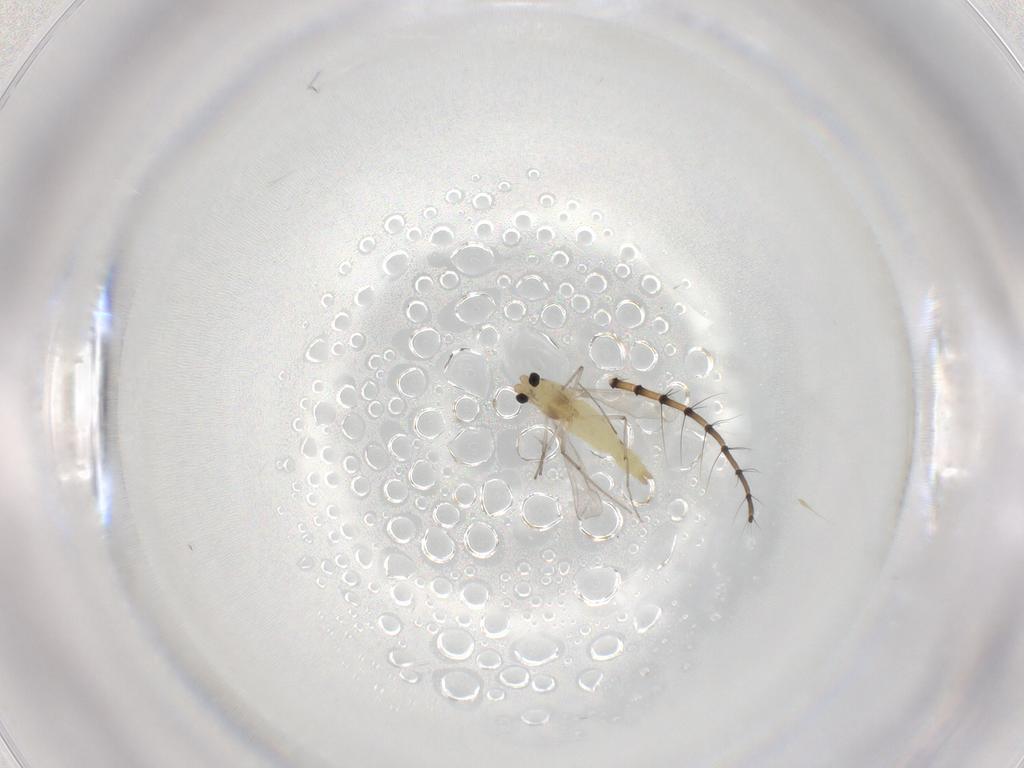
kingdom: Animalia
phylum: Arthropoda
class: Insecta
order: Diptera
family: Chironomidae
